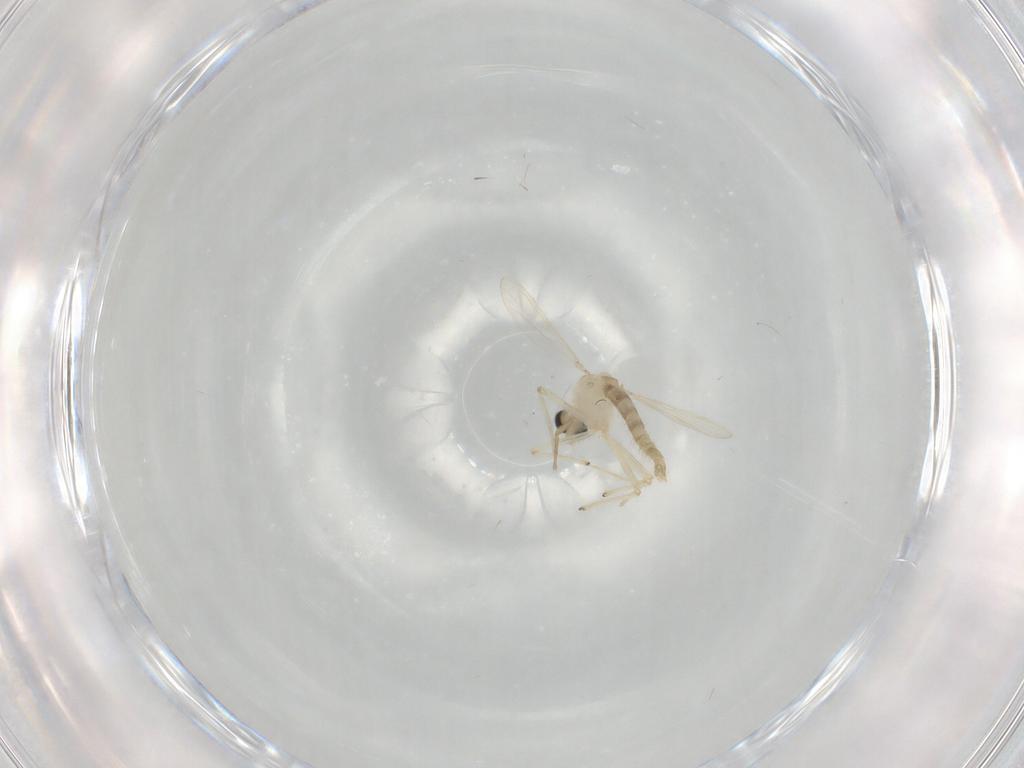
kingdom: Animalia
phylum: Arthropoda
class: Insecta
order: Diptera
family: Chironomidae
